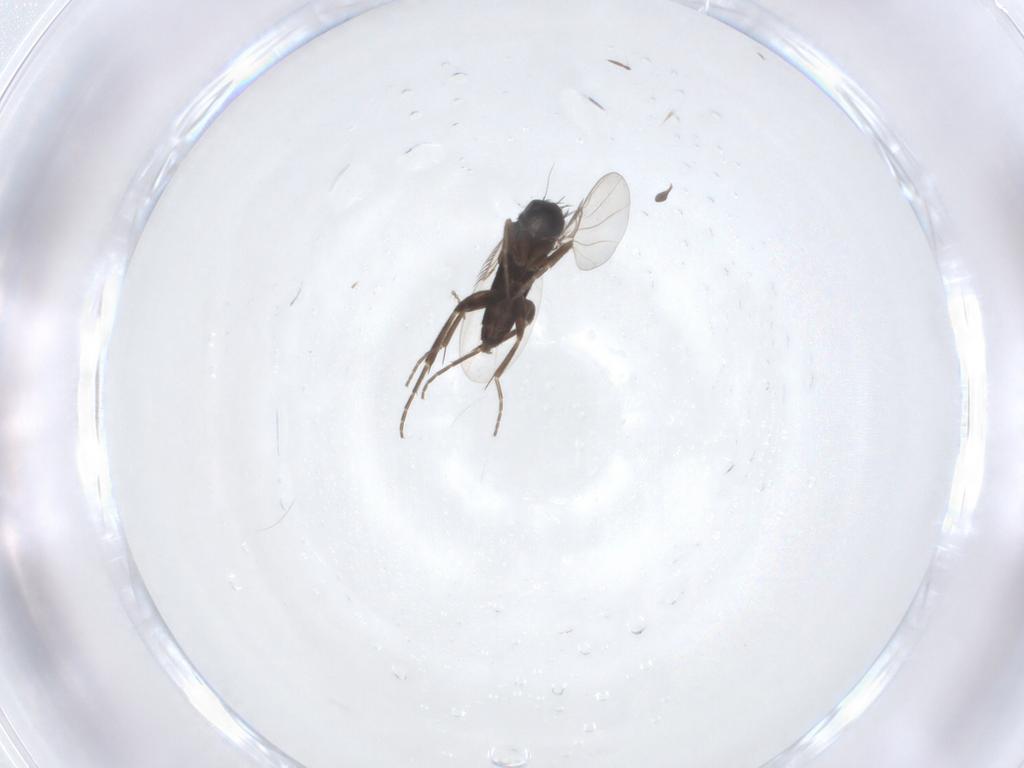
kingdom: Animalia
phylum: Arthropoda
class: Insecta
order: Diptera
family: Phoridae
